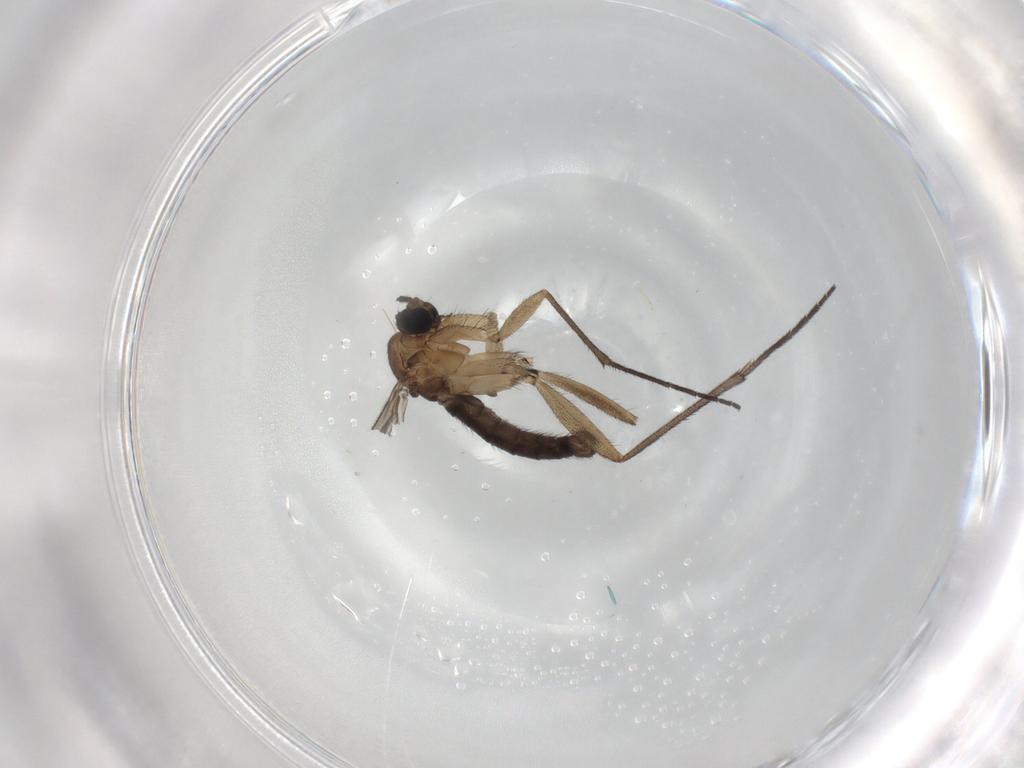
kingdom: Animalia
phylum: Arthropoda
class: Insecta
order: Diptera
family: Sciaridae
